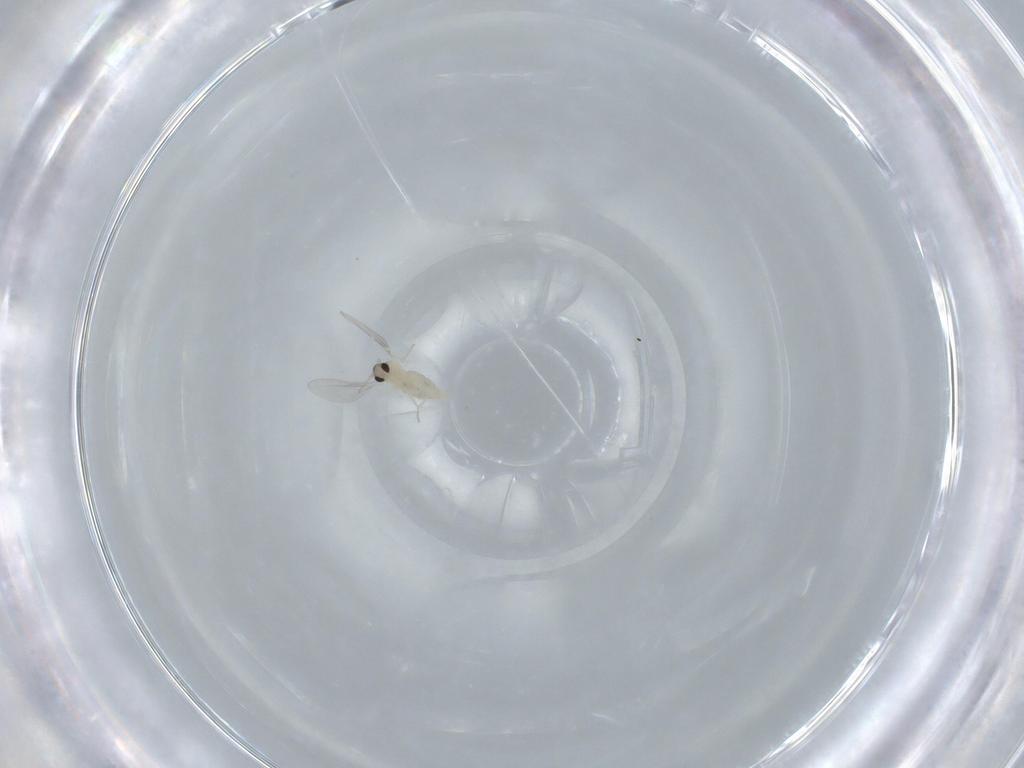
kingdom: Animalia
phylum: Arthropoda
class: Insecta
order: Diptera
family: Cecidomyiidae
